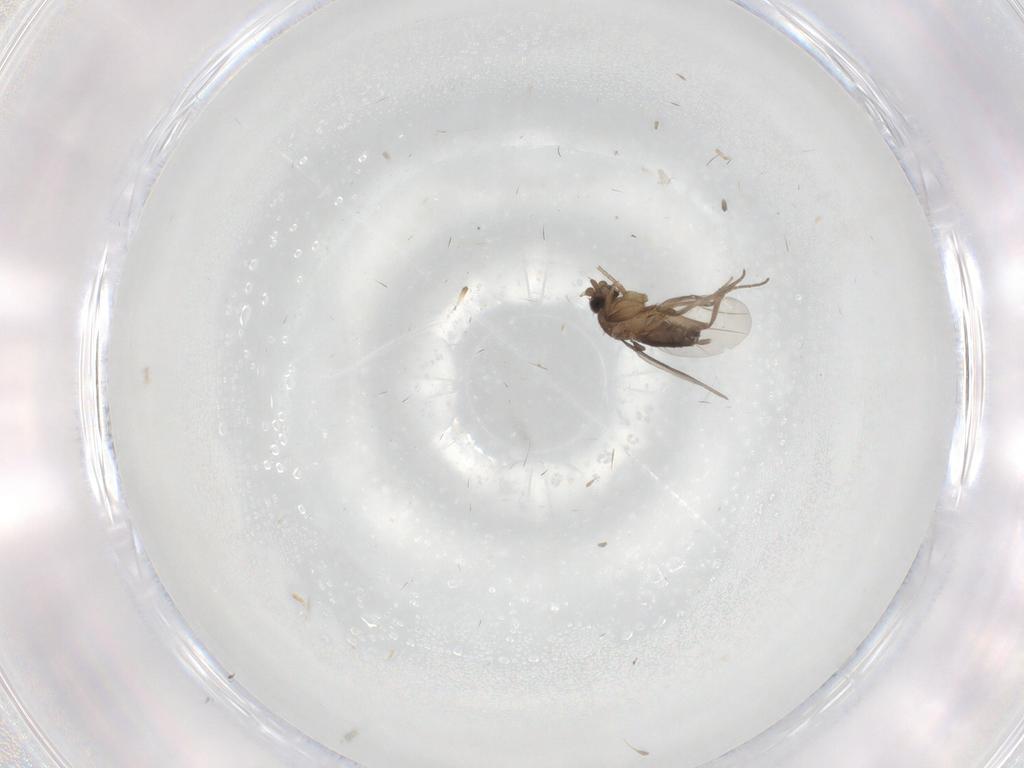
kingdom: Animalia
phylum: Arthropoda
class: Insecta
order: Diptera
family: Phoridae
